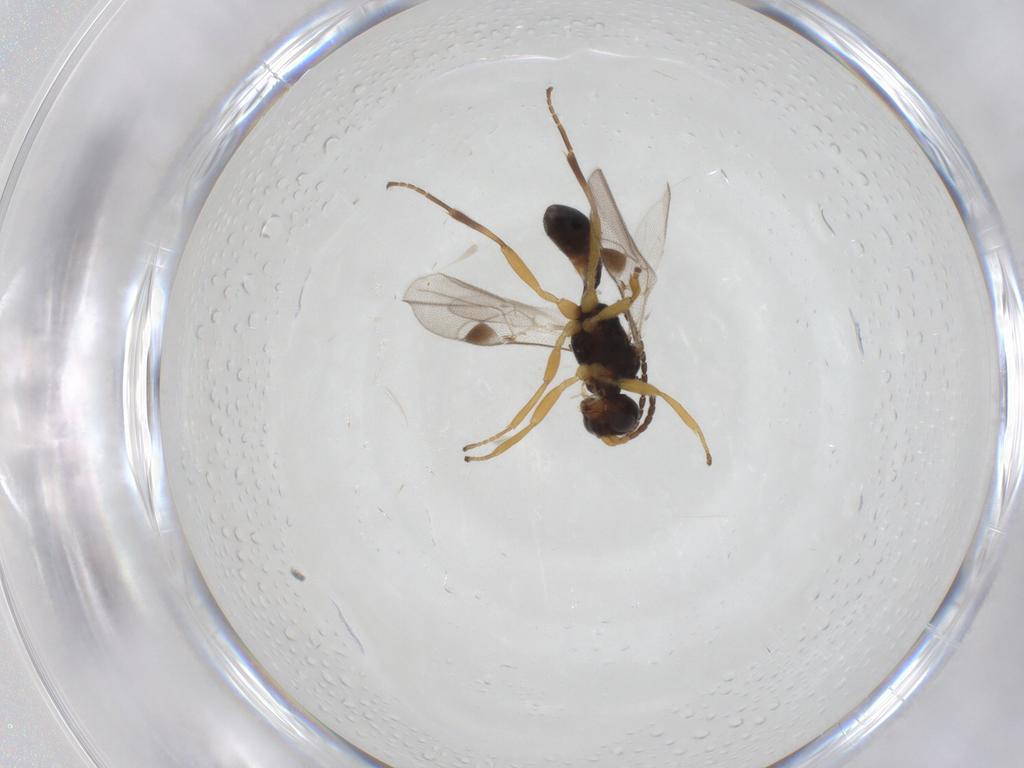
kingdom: Animalia
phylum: Arthropoda
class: Insecta
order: Hymenoptera
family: Braconidae
